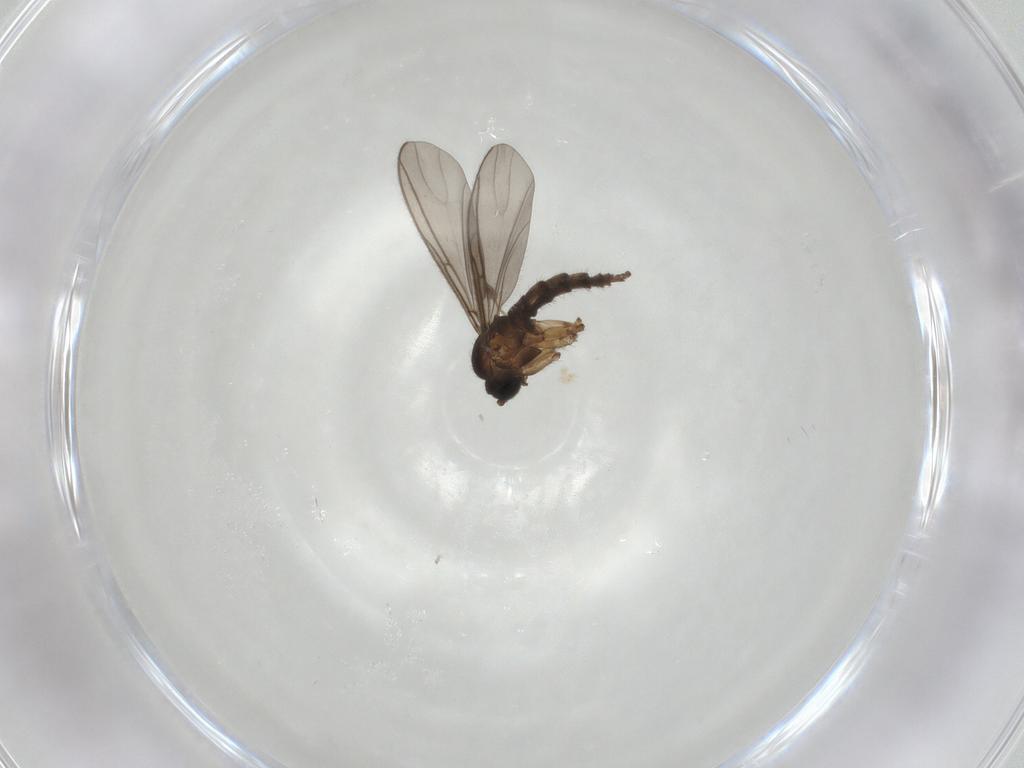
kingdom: Animalia
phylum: Arthropoda
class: Insecta
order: Diptera
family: Sciaridae
